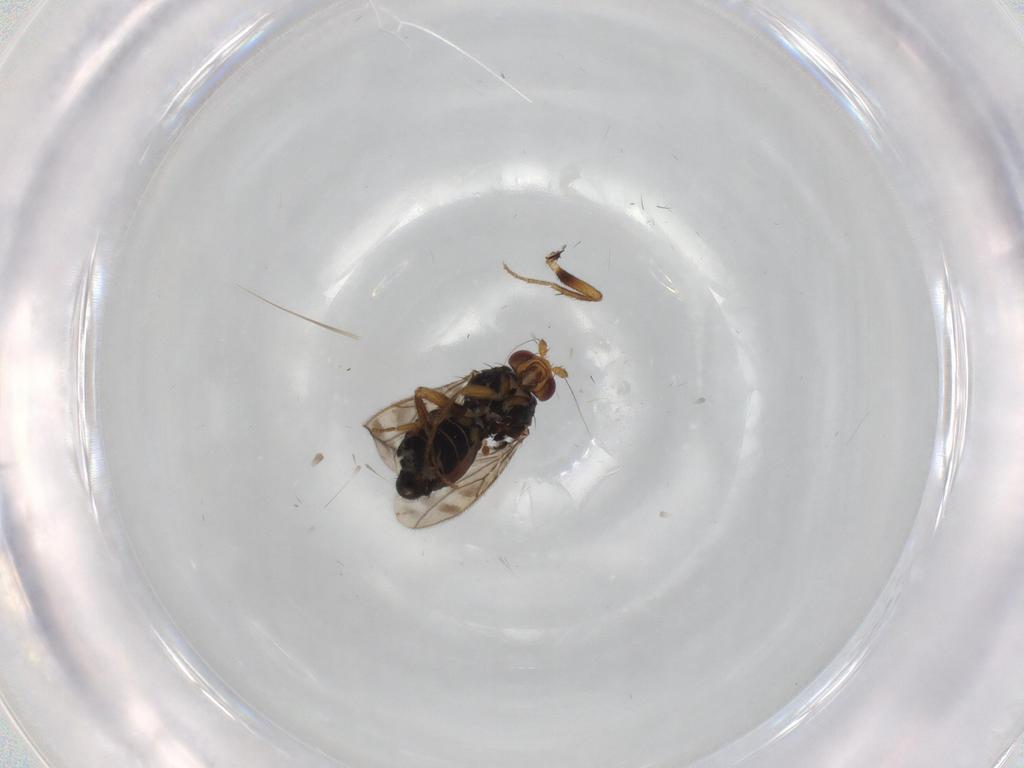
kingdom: Animalia
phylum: Arthropoda
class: Insecta
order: Diptera
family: Sphaeroceridae
